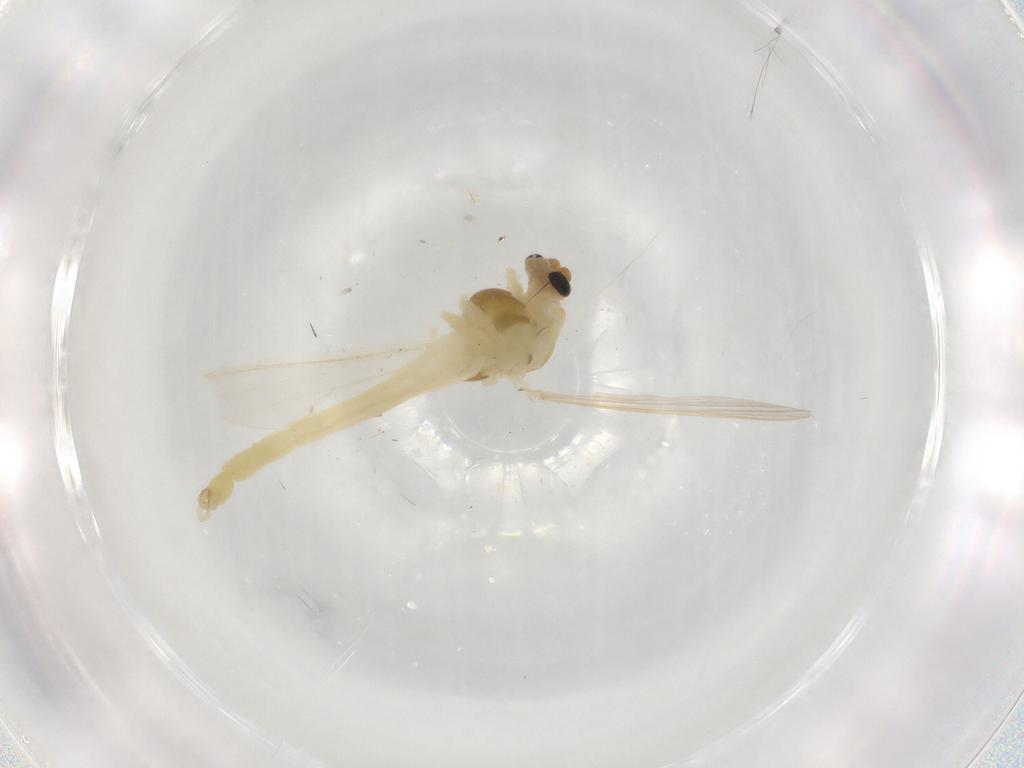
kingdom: Animalia
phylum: Arthropoda
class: Insecta
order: Diptera
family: Chironomidae
